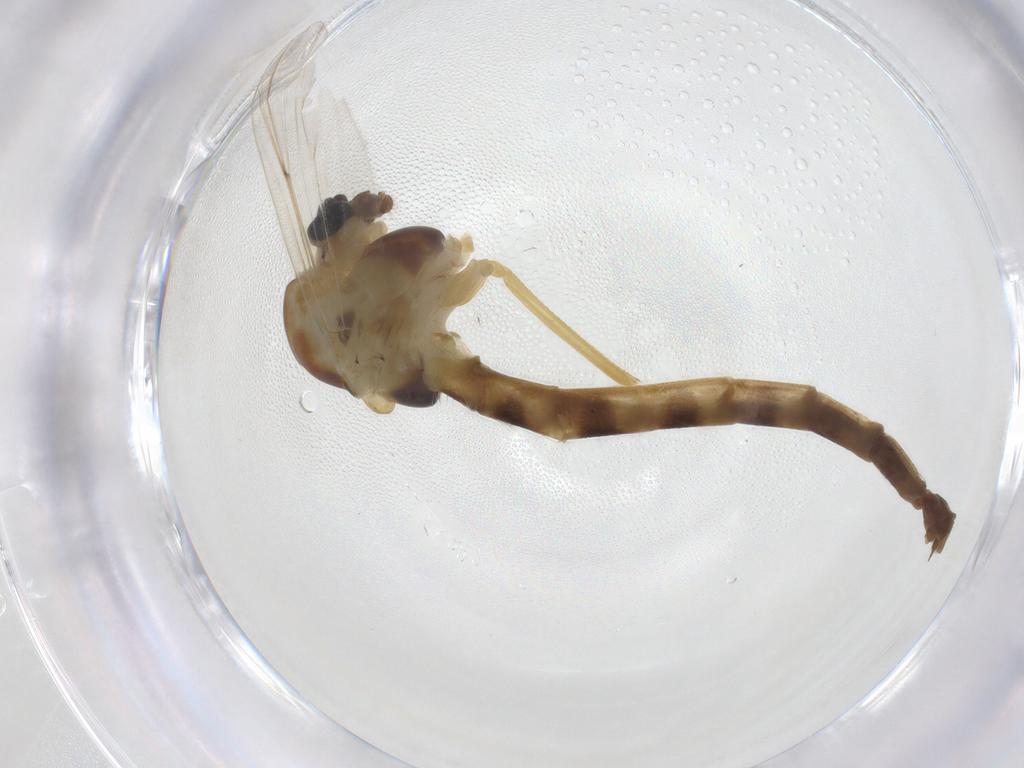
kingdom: Animalia
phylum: Arthropoda
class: Insecta
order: Diptera
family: Chironomidae
